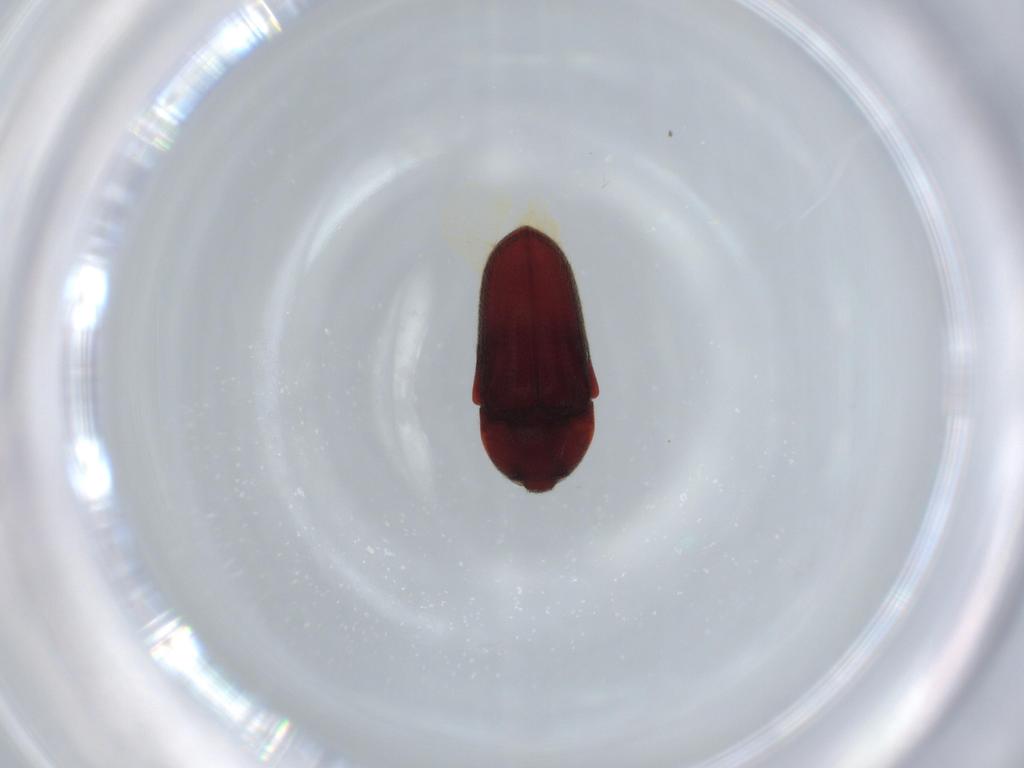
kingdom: Animalia
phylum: Arthropoda
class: Insecta
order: Coleoptera
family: Throscidae
